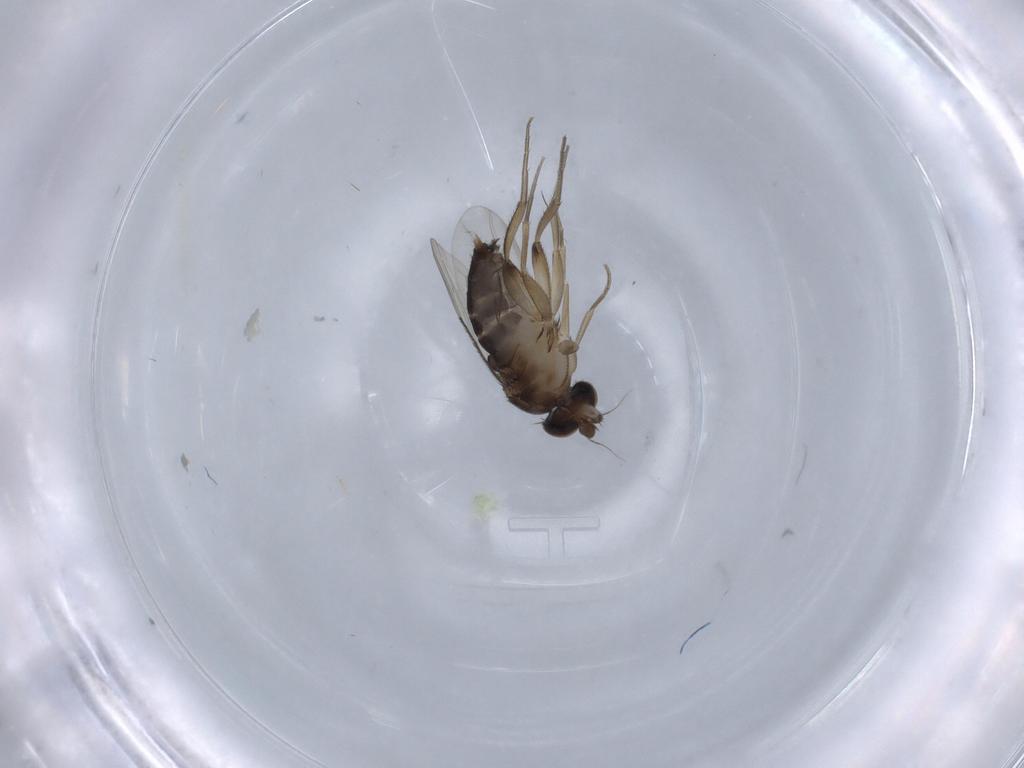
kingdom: Animalia
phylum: Arthropoda
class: Insecta
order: Diptera
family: Phoridae
